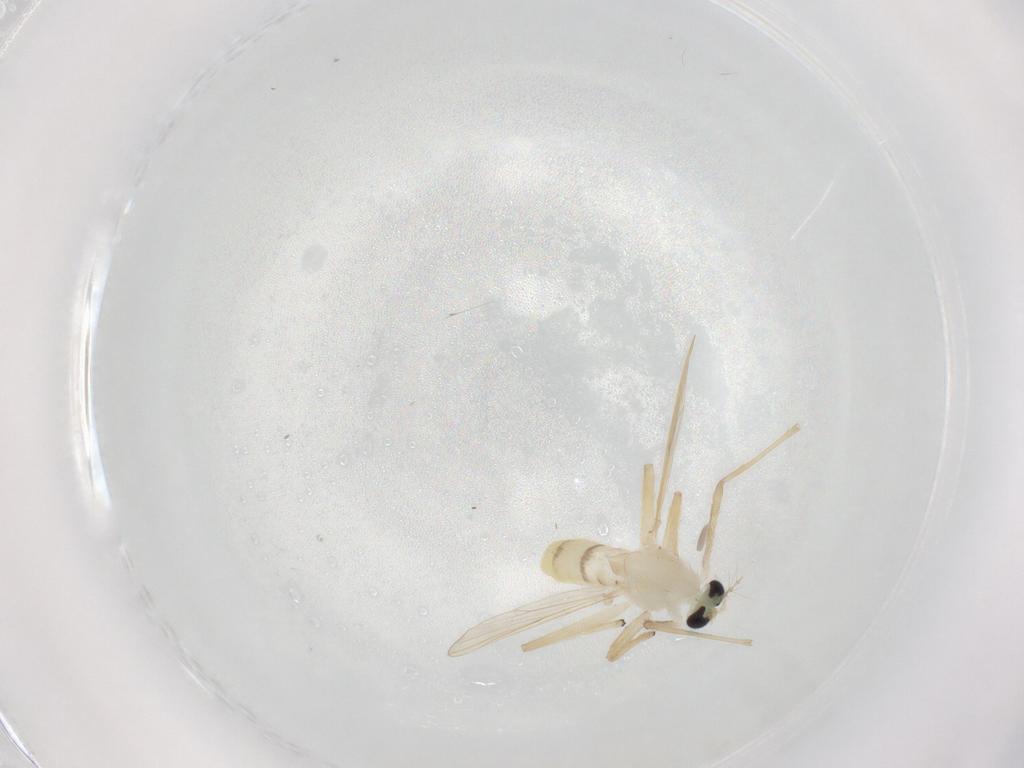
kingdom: Animalia
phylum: Arthropoda
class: Insecta
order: Diptera
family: Chironomidae
